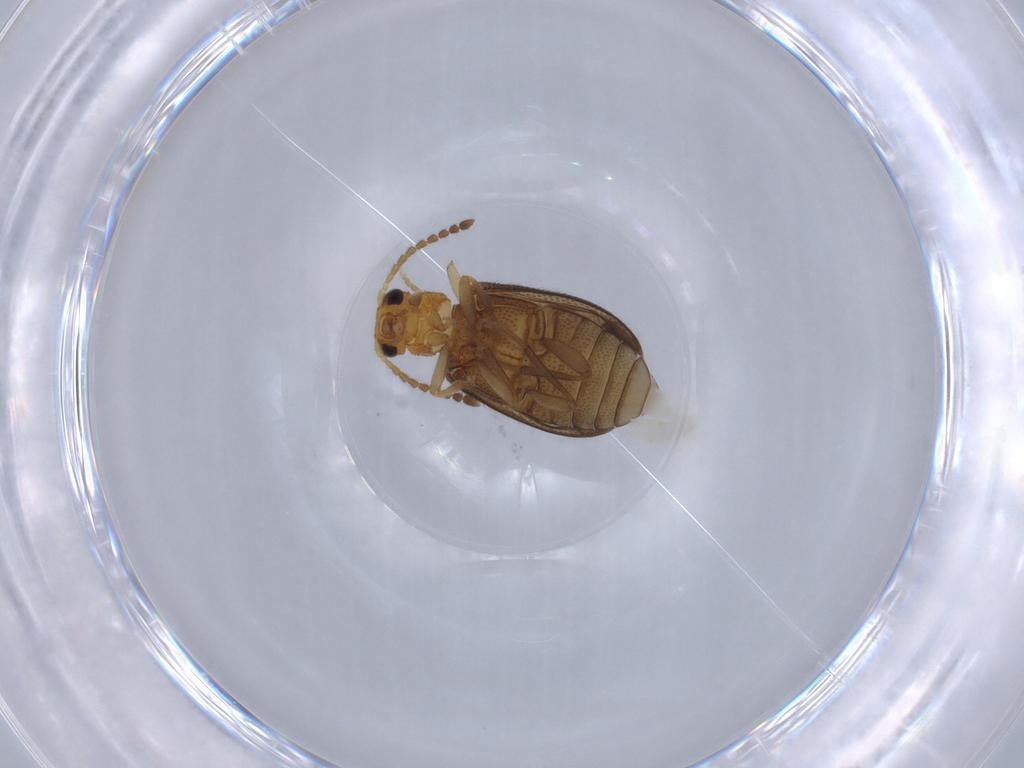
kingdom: Animalia
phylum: Arthropoda
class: Insecta
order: Coleoptera
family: Aderidae
